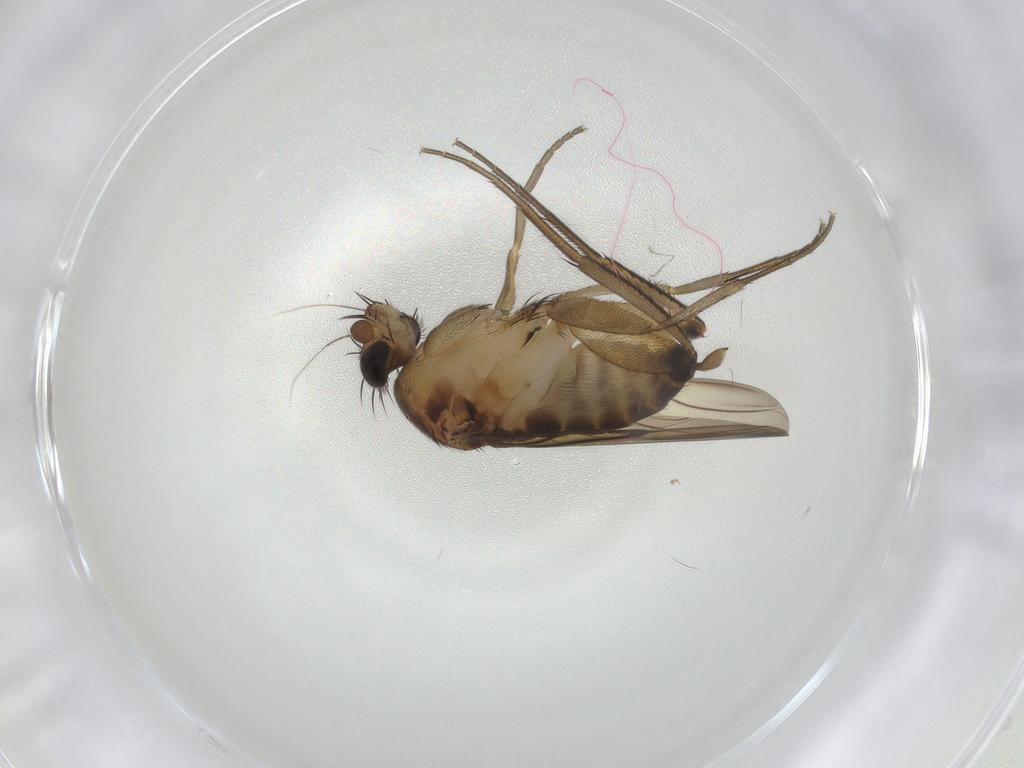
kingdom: Animalia
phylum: Arthropoda
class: Insecta
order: Diptera
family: Phoridae
